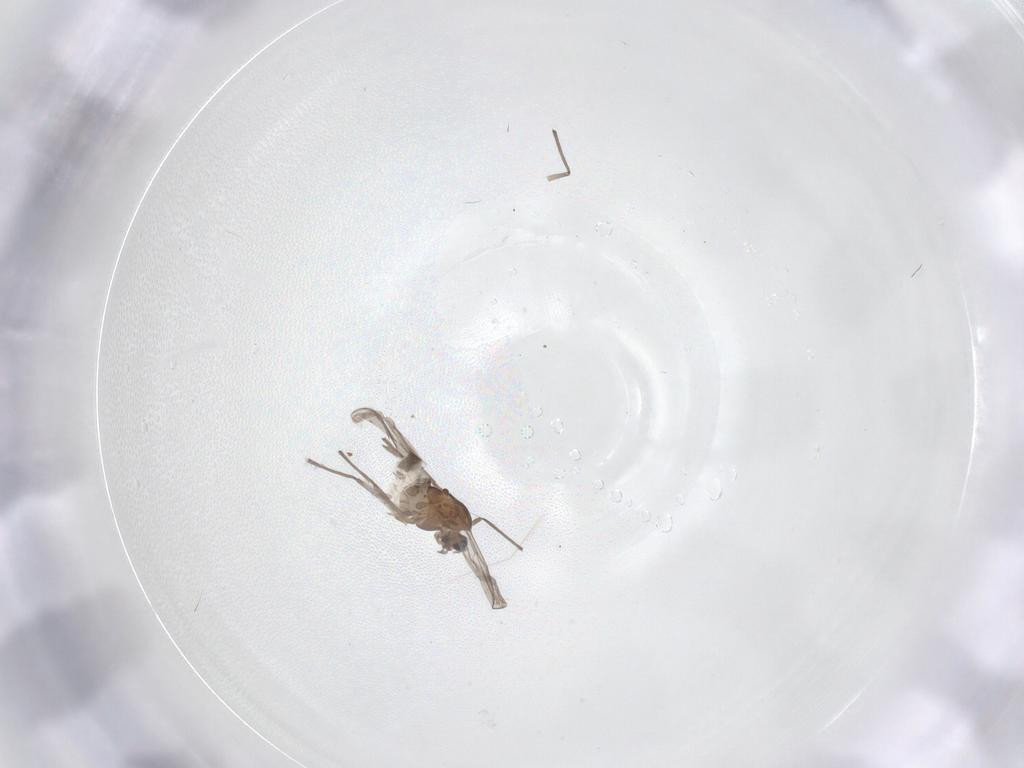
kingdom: Animalia
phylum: Arthropoda
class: Insecta
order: Diptera
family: Chironomidae
